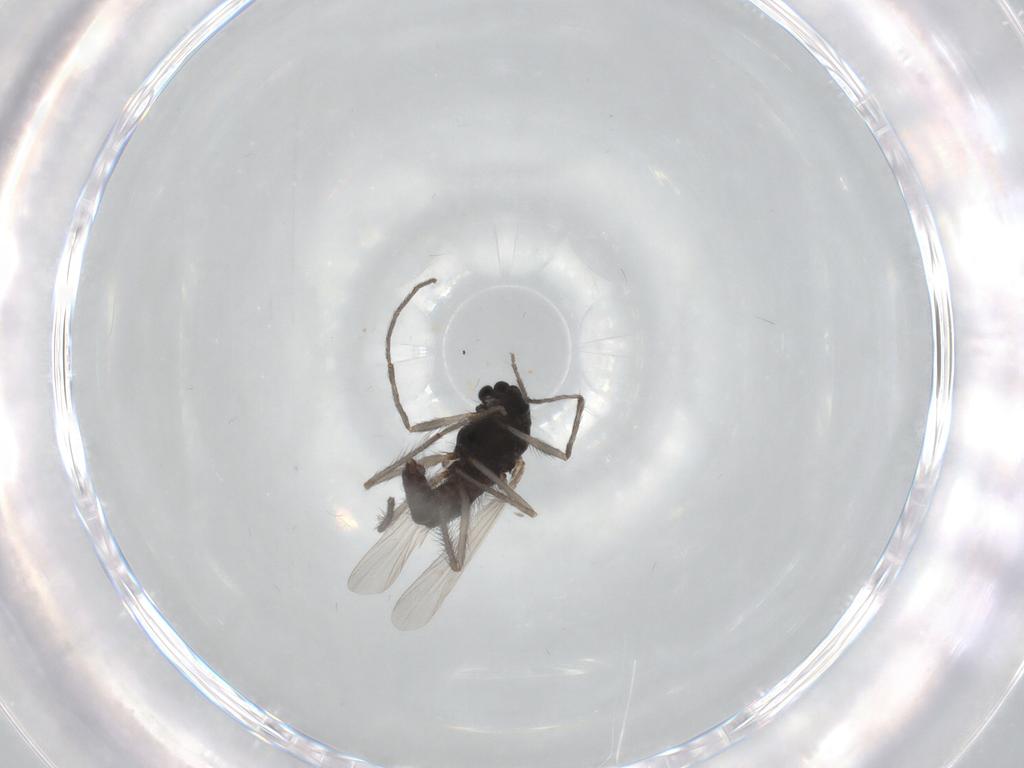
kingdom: Animalia
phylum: Arthropoda
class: Insecta
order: Diptera
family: Chironomidae
